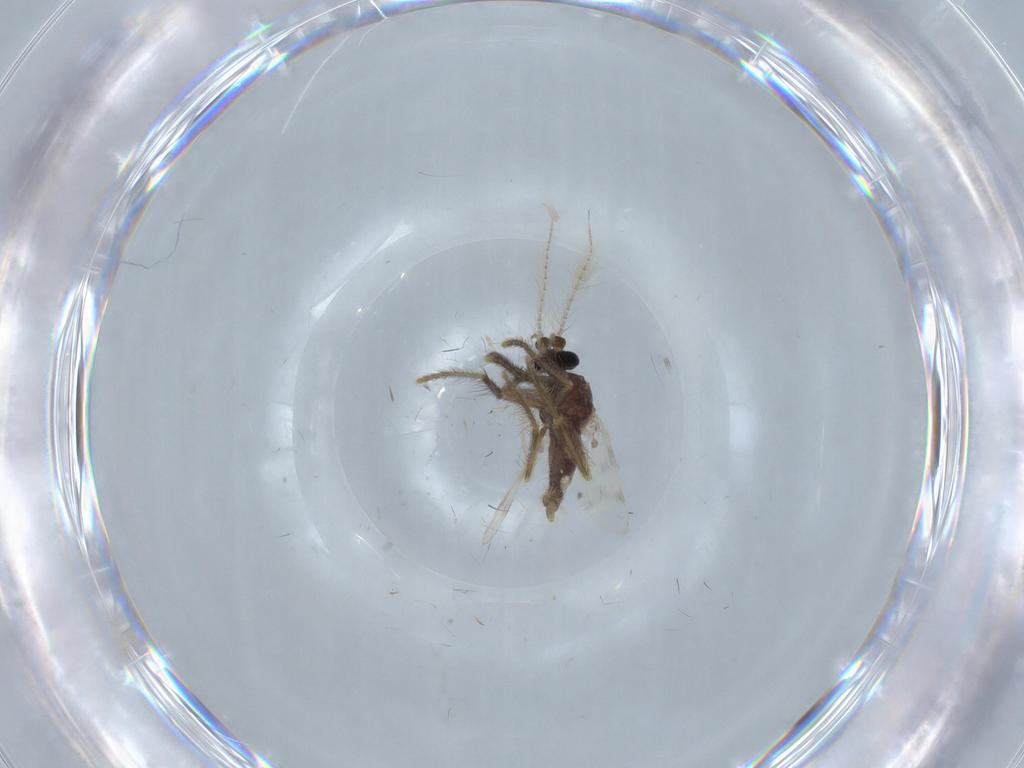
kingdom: Animalia
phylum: Arthropoda
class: Insecta
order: Diptera
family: Corethrellidae
